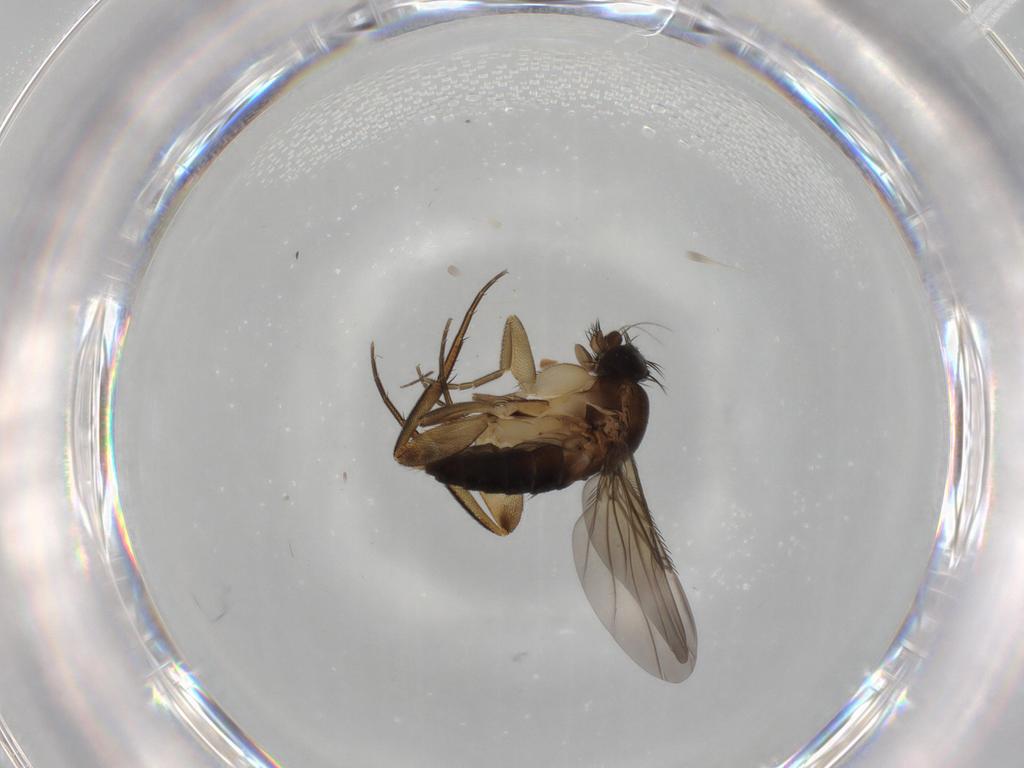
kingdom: Animalia
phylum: Arthropoda
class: Insecta
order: Diptera
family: Phoridae
